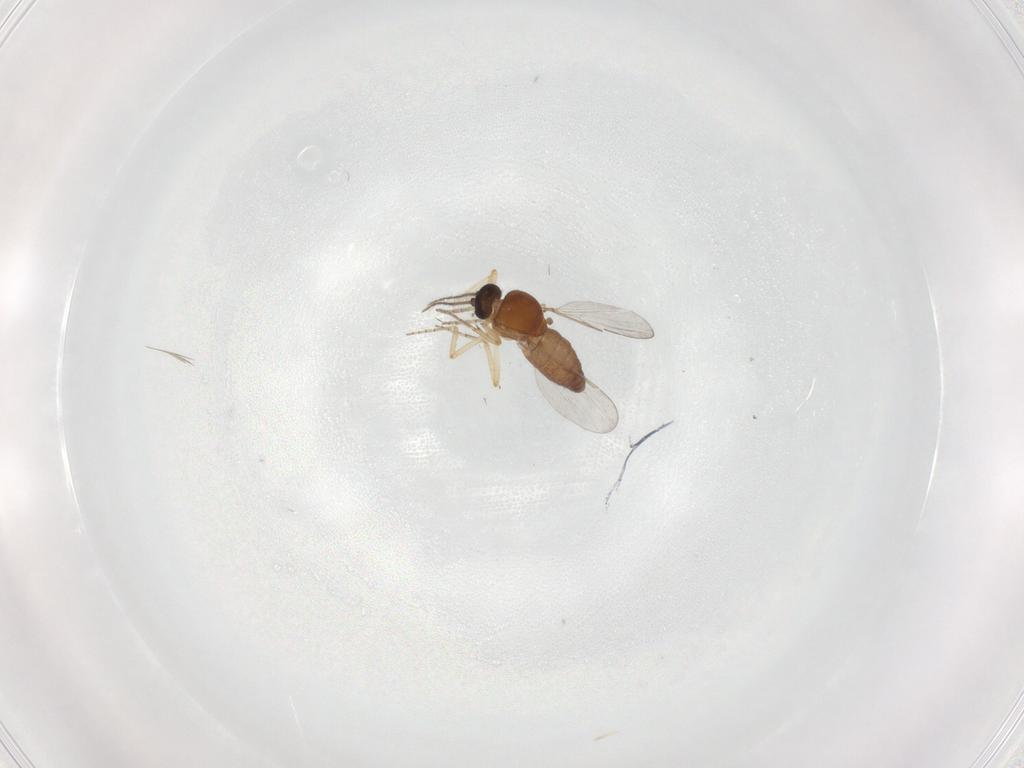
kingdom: Animalia
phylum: Arthropoda
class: Insecta
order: Diptera
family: Ceratopogonidae
